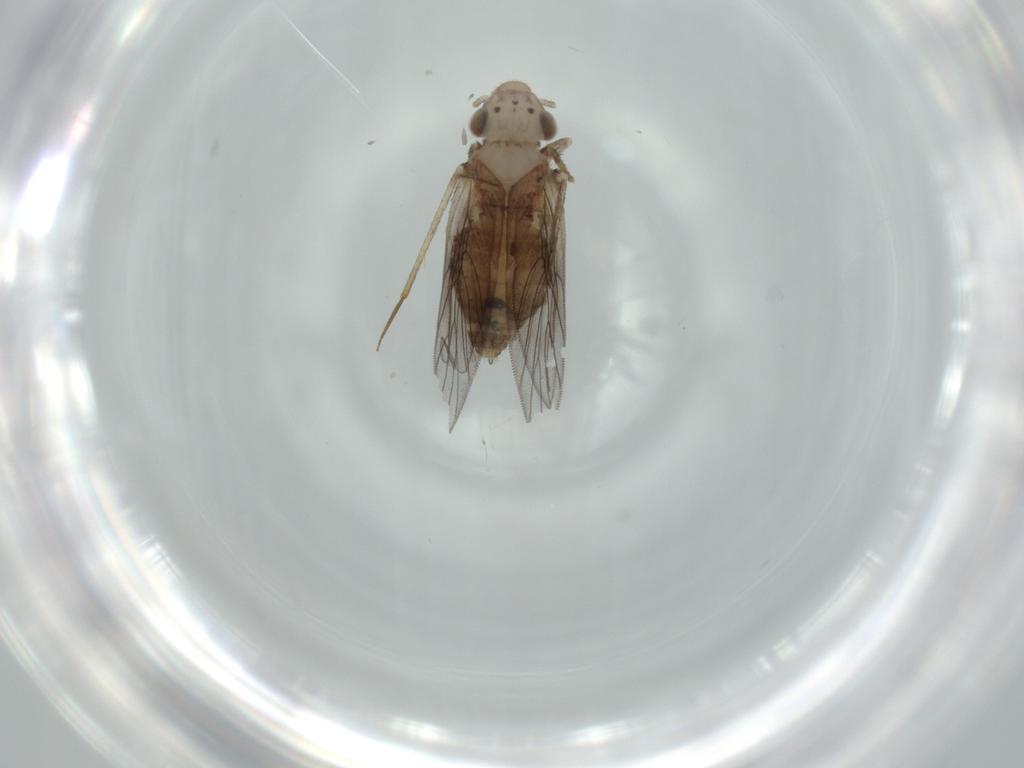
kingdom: Animalia
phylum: Arthropoda
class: Insecta
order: Psocodea
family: Lepidopsocidae
